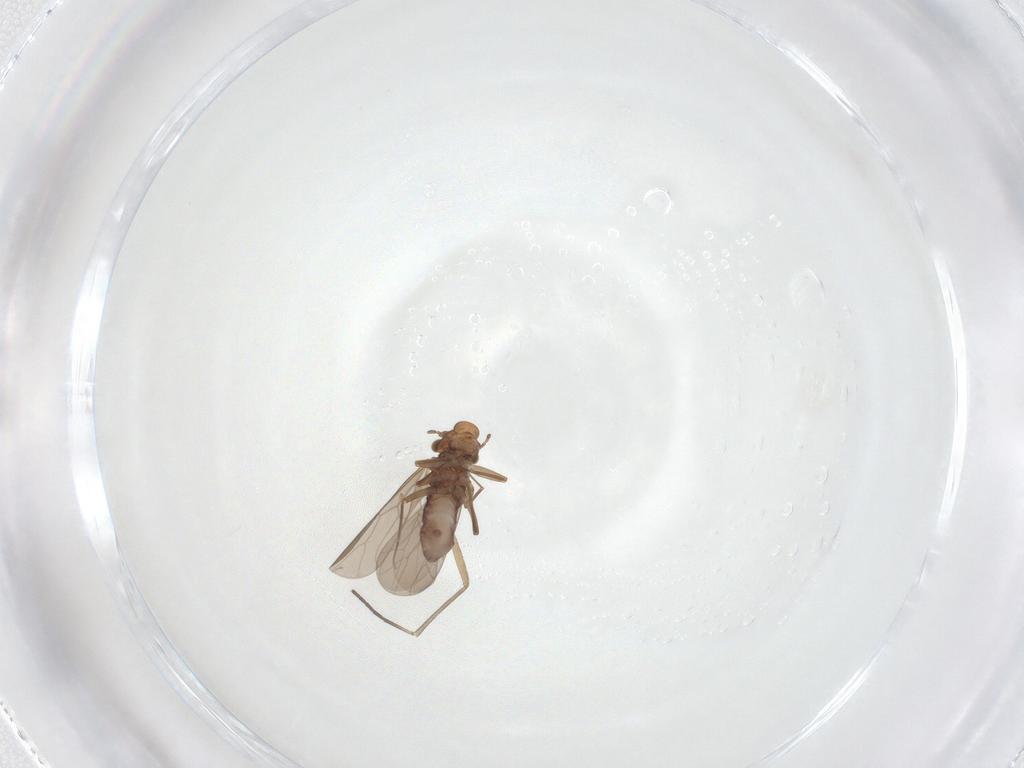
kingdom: Animalia
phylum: Arthropoda
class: Insecta
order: Diptera
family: Sciaridae
